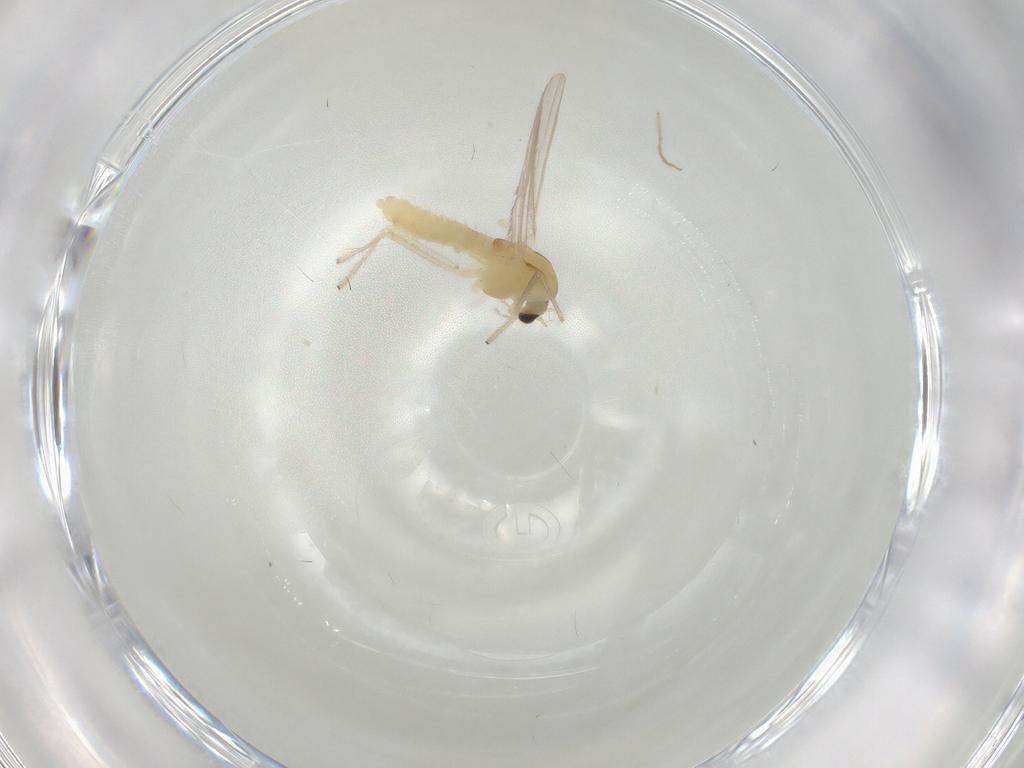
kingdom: Animalia
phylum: Arthropoda
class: Insecta
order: Diptera
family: Chironomidae
